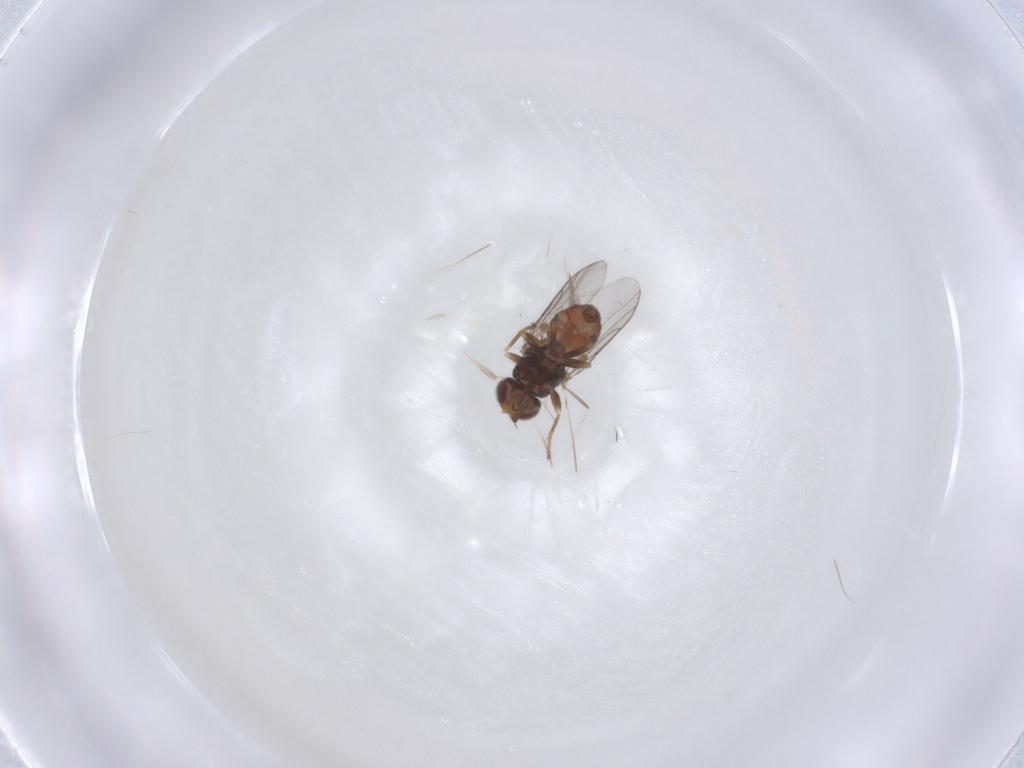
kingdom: Animalia
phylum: Arthropoda
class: Insecta
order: Diptera
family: Chloropidae
